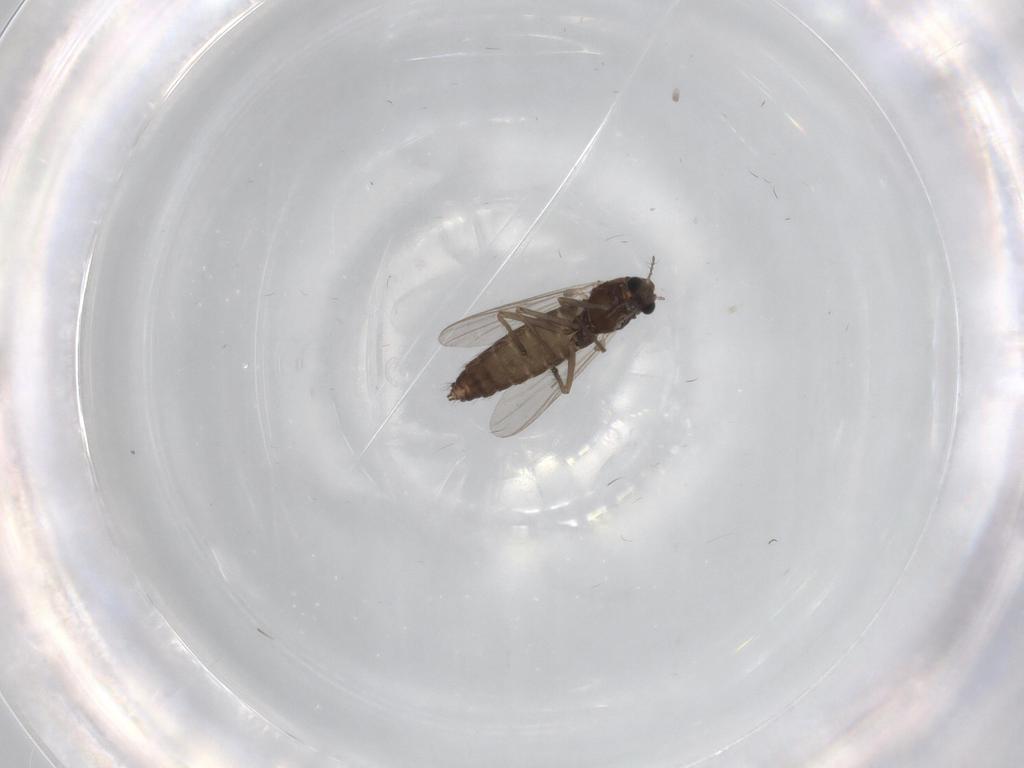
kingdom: Animalia
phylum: Arthropoda
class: Insecta
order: Diptera
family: Chironomidae
